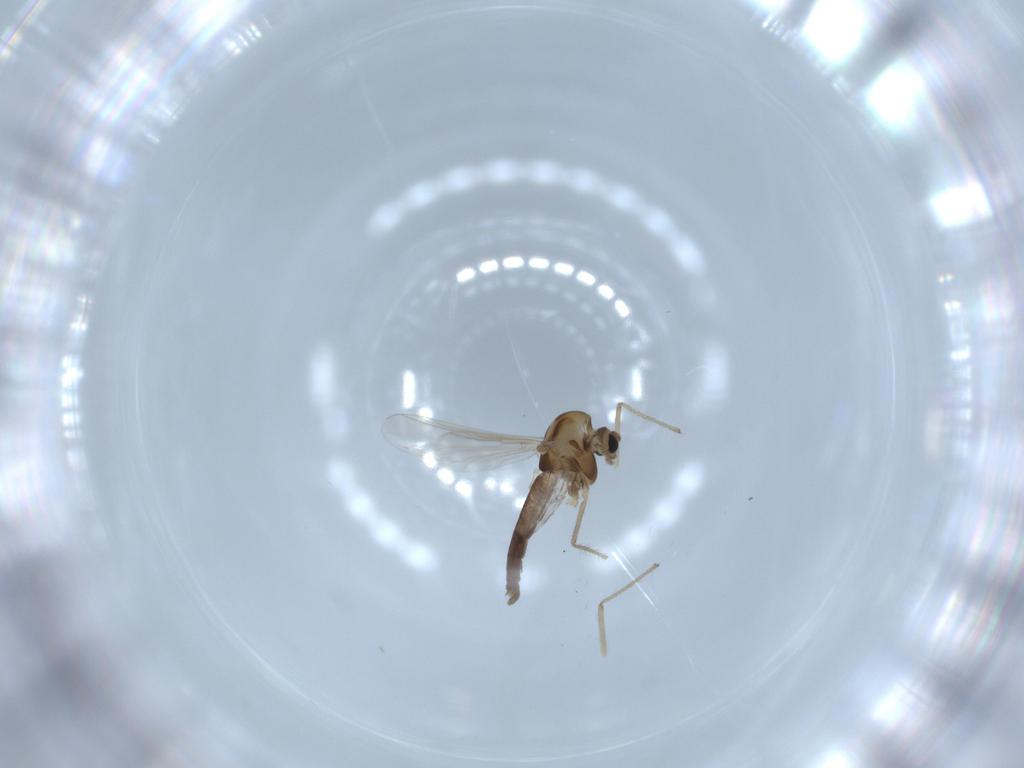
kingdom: Animalia
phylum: Arthropoda
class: Insecta
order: Diptera
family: Chironomidae
